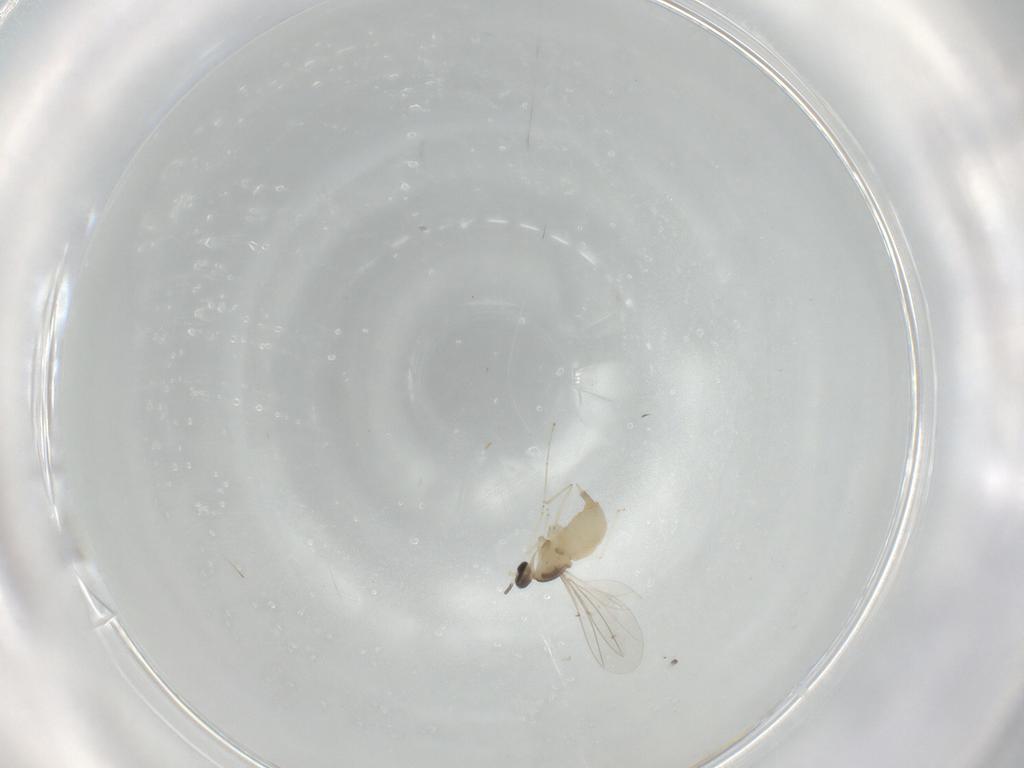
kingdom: Animalia
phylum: Arthropoda
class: Insecta
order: Diptera
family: Cecidomyiidae
